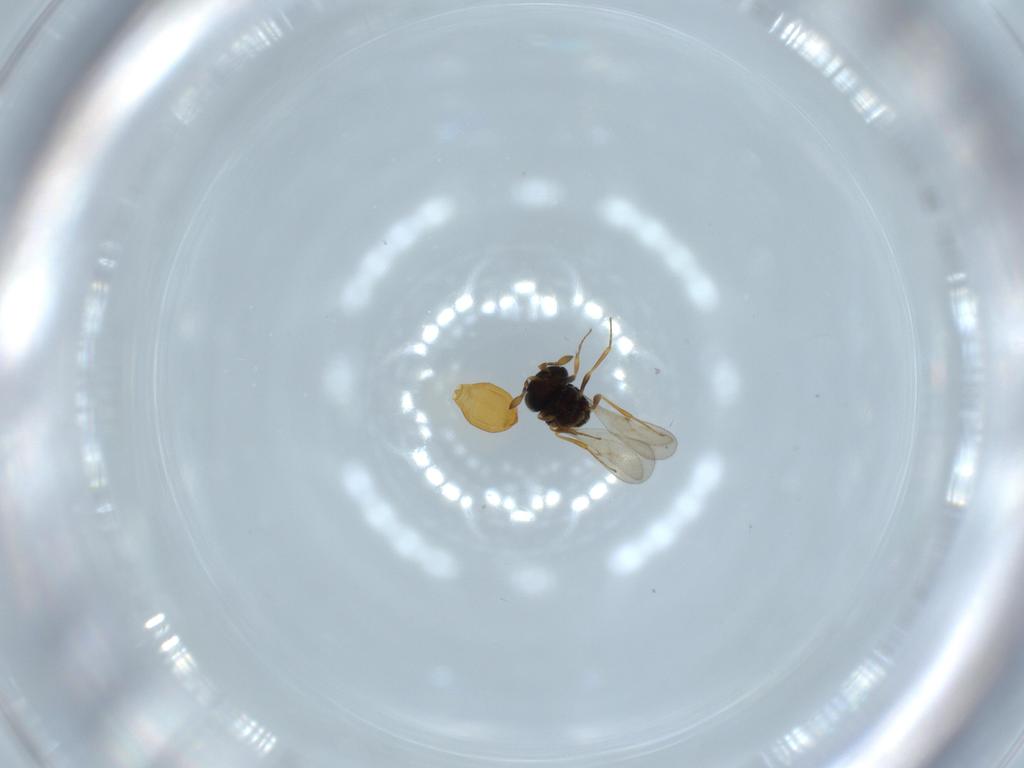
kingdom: Animalia
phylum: Arthropoda
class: Insecta
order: Hymenoptera
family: Scelionidae
